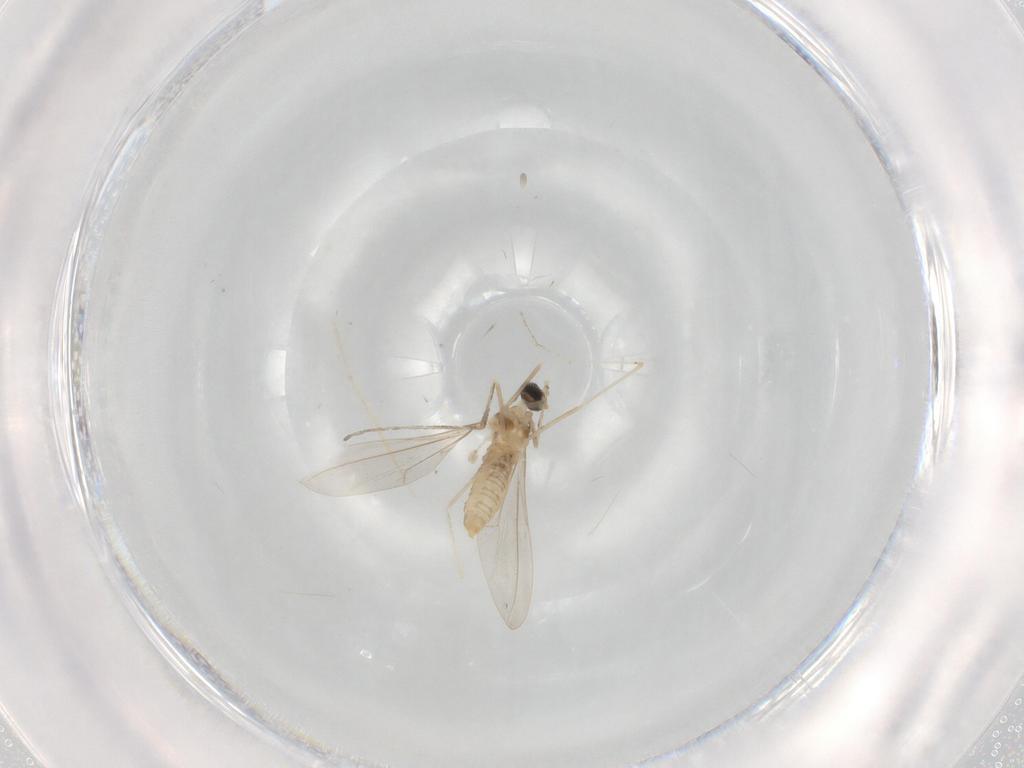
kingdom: Animalia
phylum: Arthropoda
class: Insecta
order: Diptera
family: Cecidomyiidae
